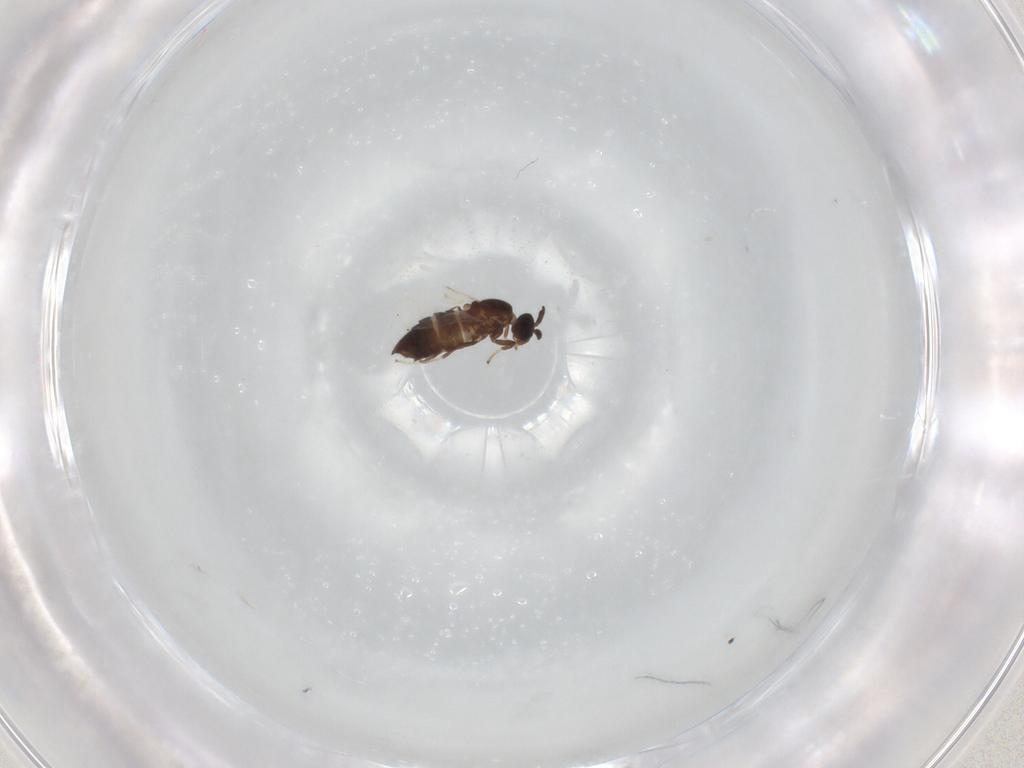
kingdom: Animalia
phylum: Arthropoda
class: Insecta
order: Diptera
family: Scatopsidae
